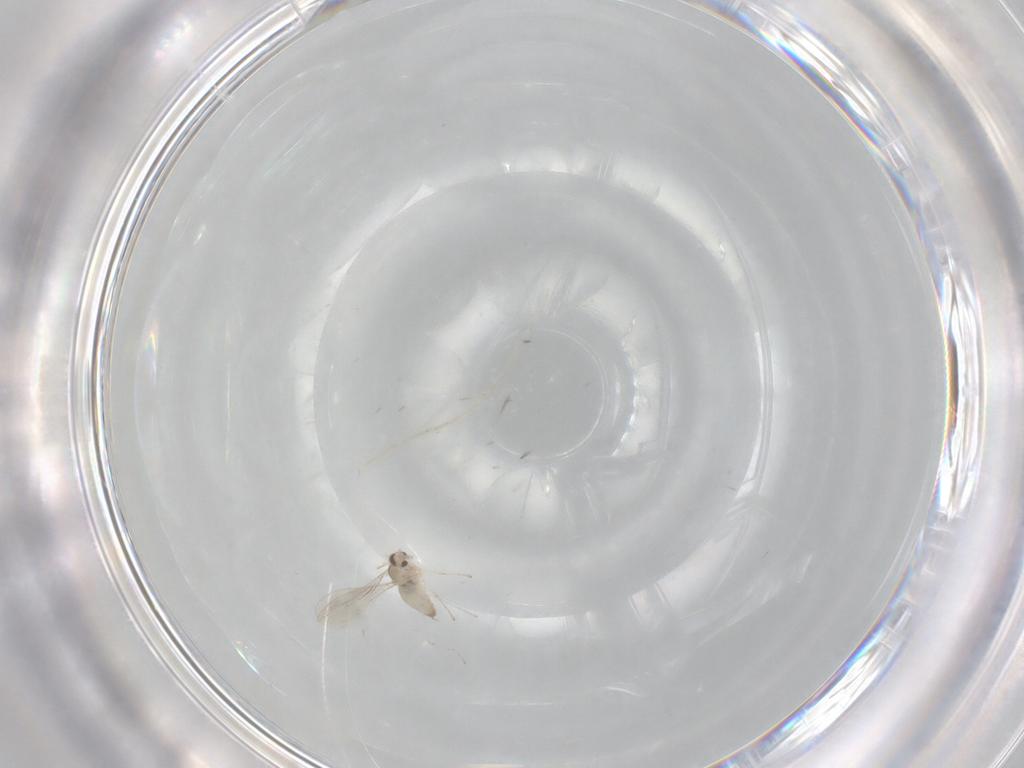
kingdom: Animalia
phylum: Arthropoda
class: Insecta
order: Diptera
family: Cecidomyiidae
